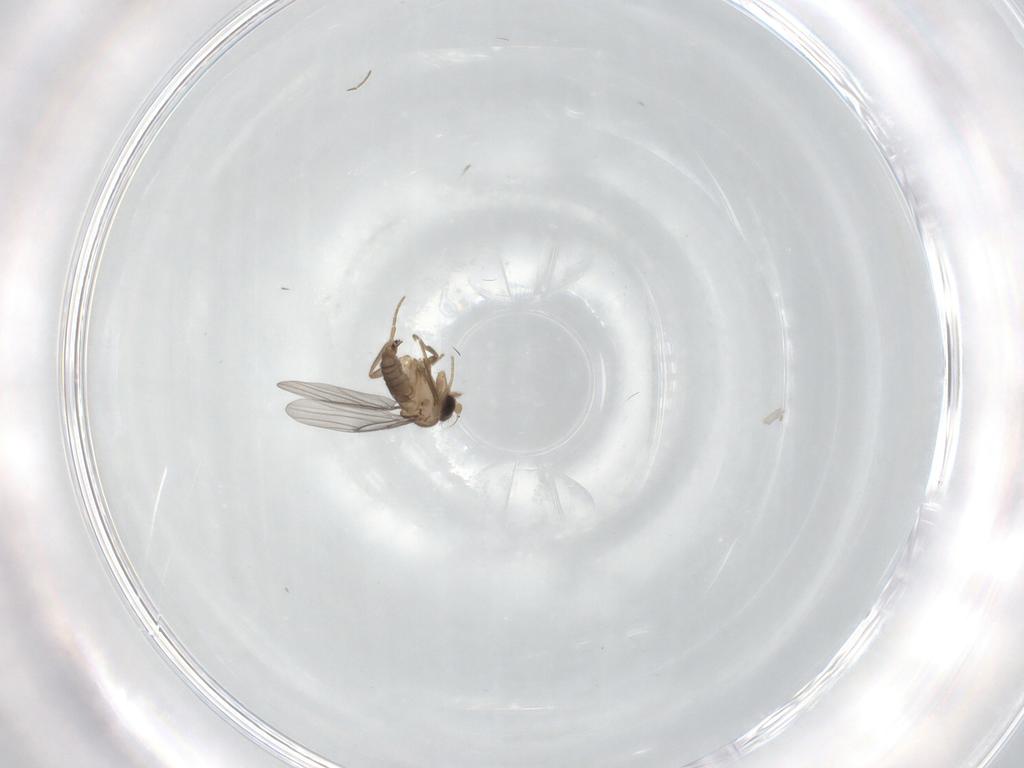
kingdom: Animalia
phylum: Arthropoda
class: Insecta
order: Diptera
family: Phoridae
